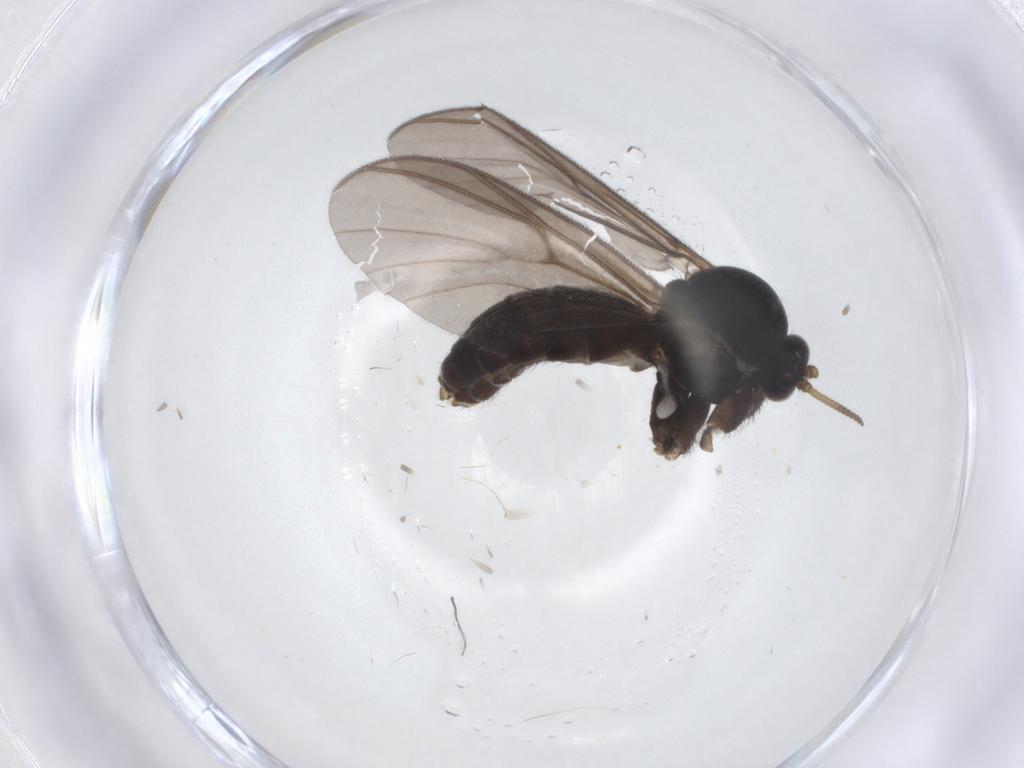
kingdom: Animalia
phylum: Arthropoda
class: Insecta
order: Diptera
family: Mycetophilidae
